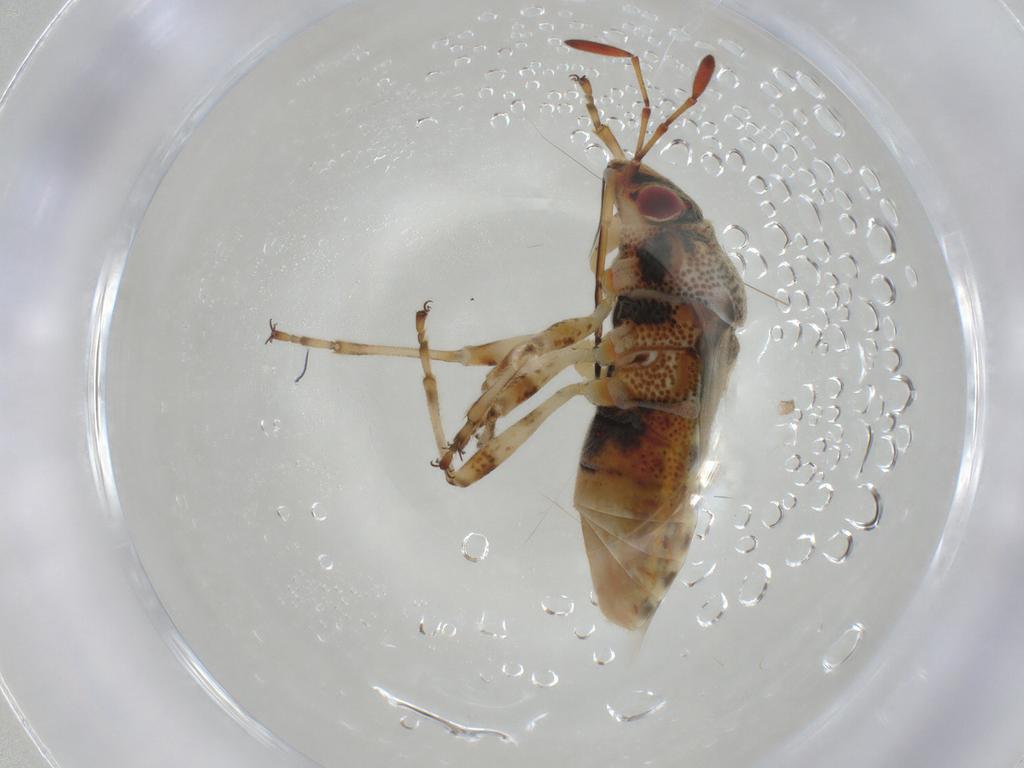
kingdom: Animalia
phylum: Arthropoda
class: Insecta
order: Hemiptera
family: Lygaeidae
